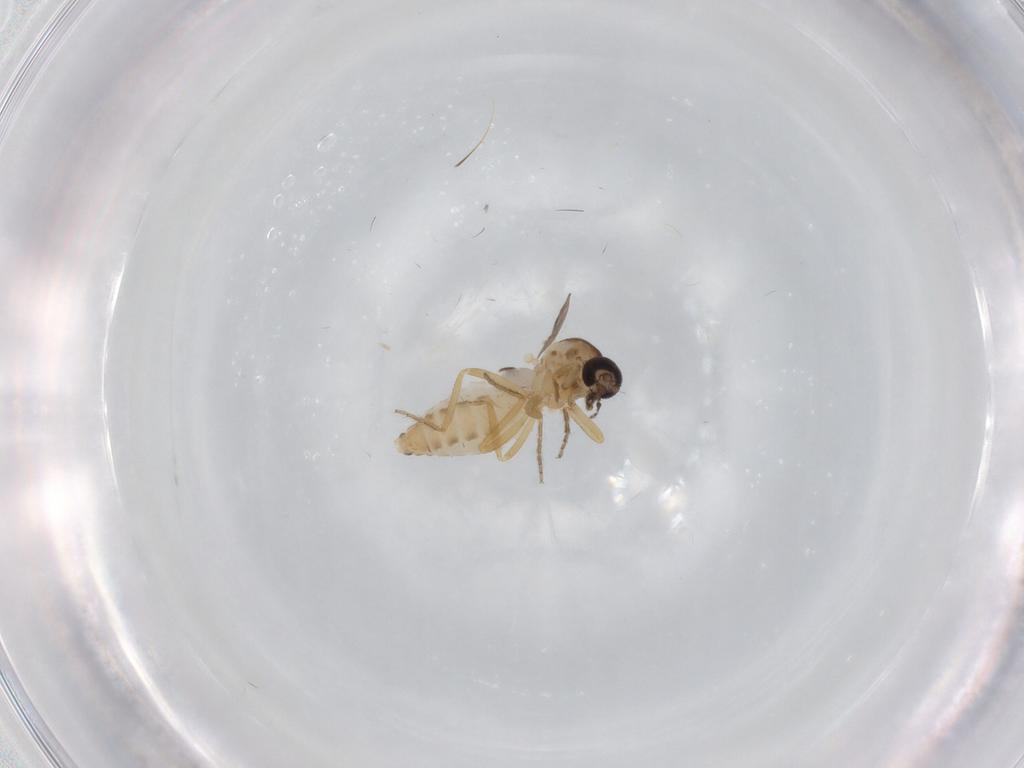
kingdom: Animalia
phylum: Arthropoda
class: Insecta
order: Diptera
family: Ceratopogonidae
